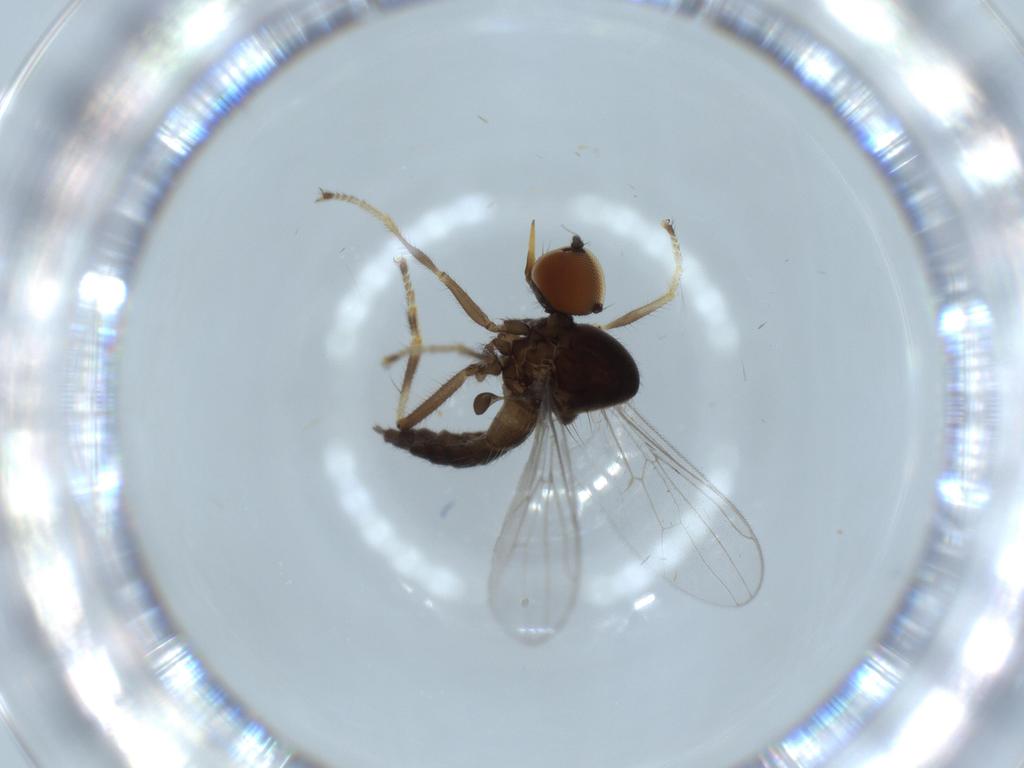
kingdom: Animalia
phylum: Arthropoda
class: Insecta
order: Diptera
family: Hybotidae
